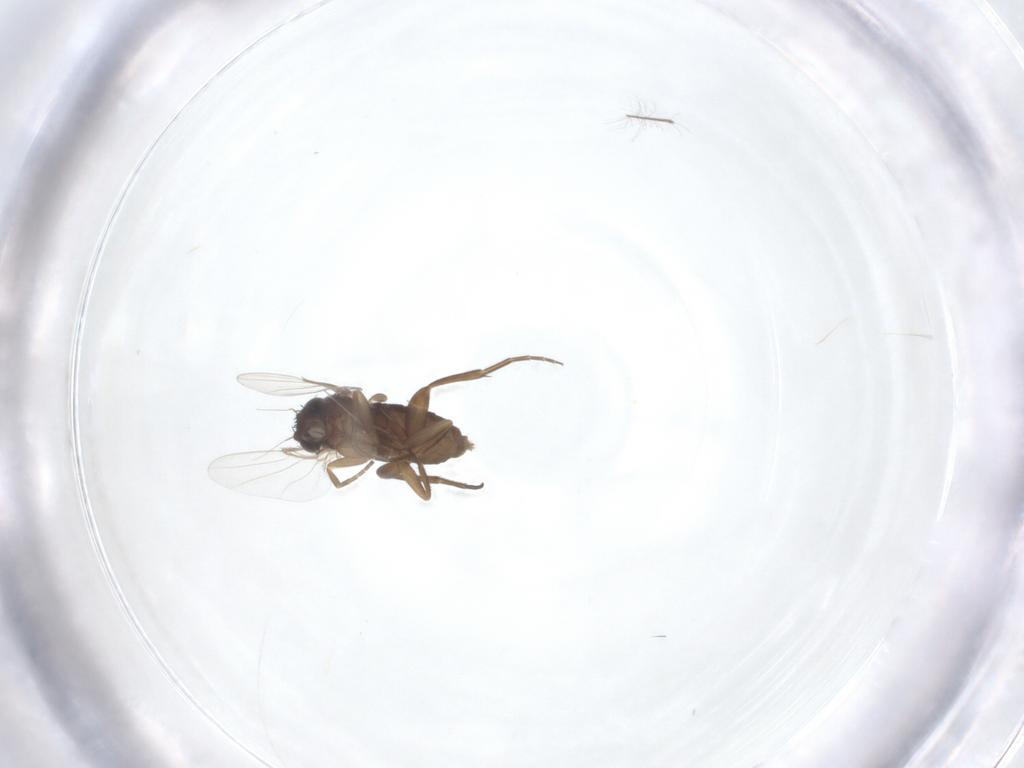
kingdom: Animalia
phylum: Arthropoda
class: Insecta
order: Diptera
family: Phoridae
